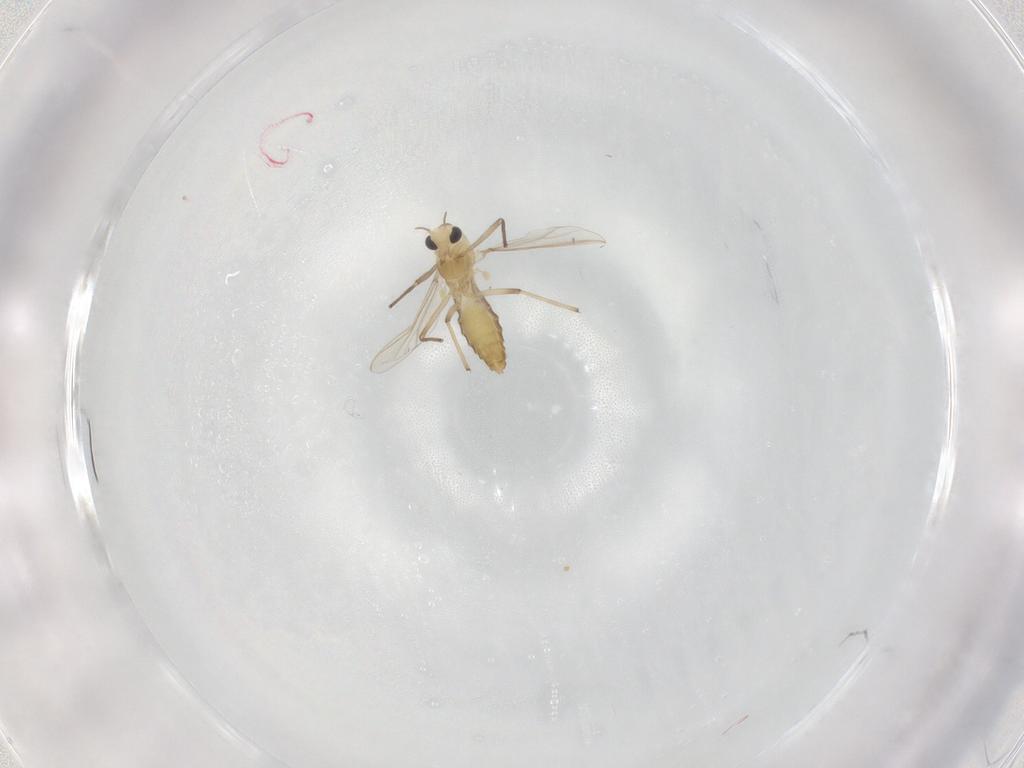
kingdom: Animalia
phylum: Arthropoda
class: Insecta
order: Diptera
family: Chironomidae
